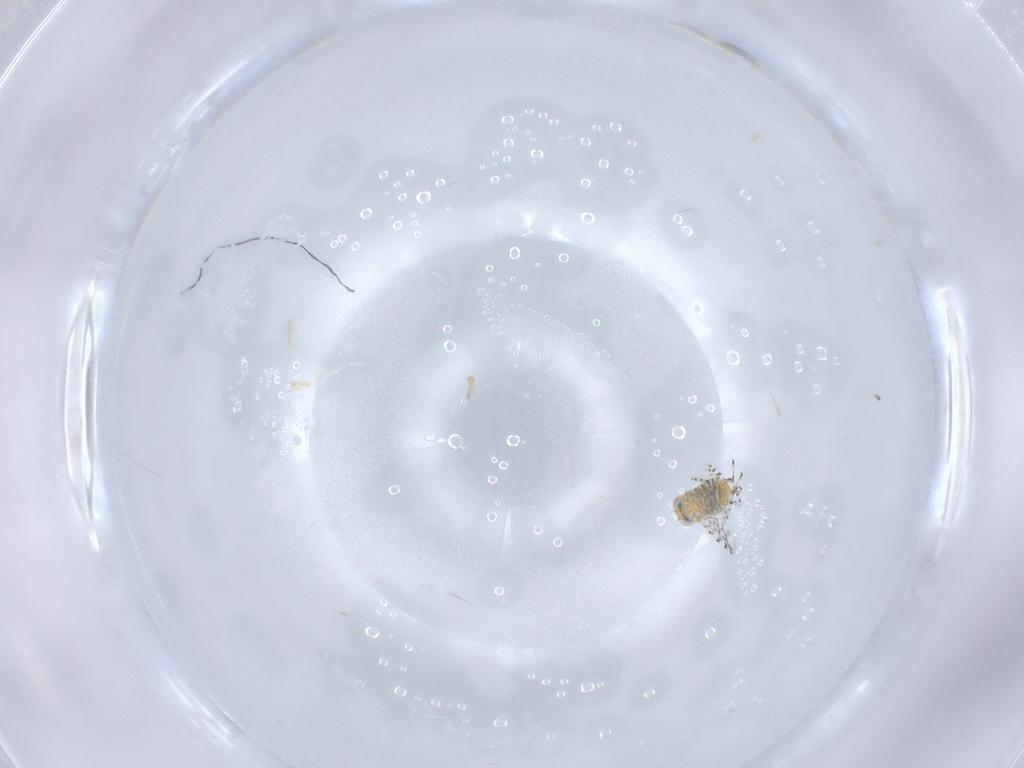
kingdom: Animalia
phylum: Arthropoda
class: Insecta
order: Hymenoptera
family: Aphelinidae
